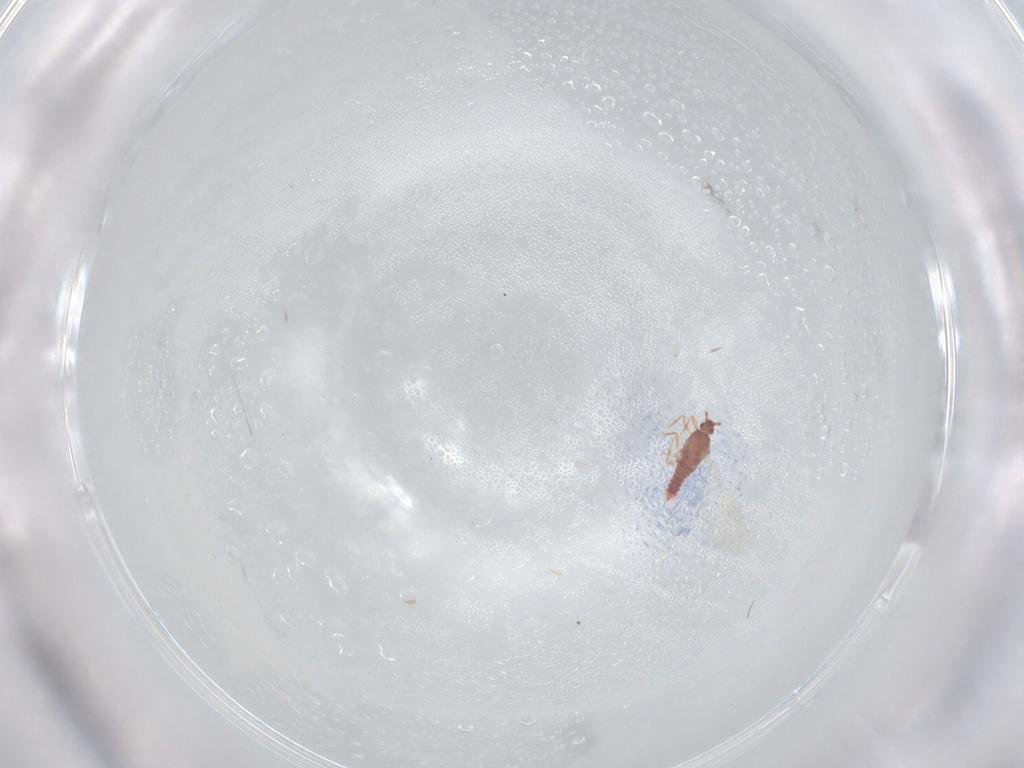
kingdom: Animalia
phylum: Arthropoda
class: Insecta
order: Hemiptera
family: Aleyrodidae
